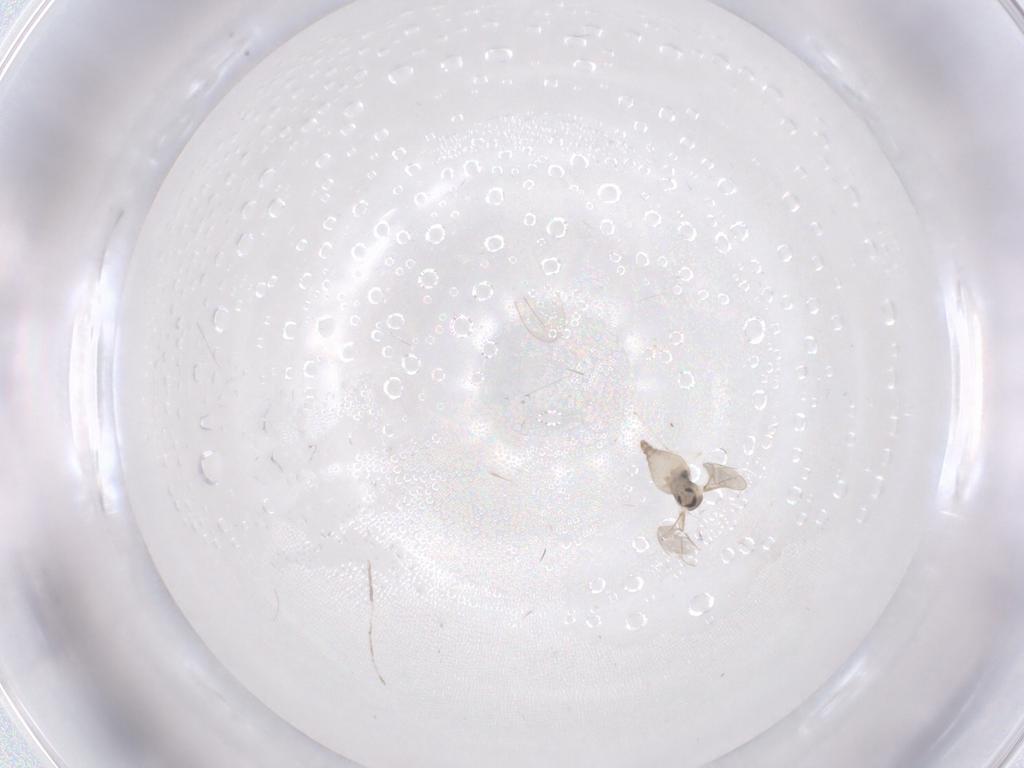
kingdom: Animalia
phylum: Arthropoda
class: Insecta
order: Diptera
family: Cecidomyiidae
